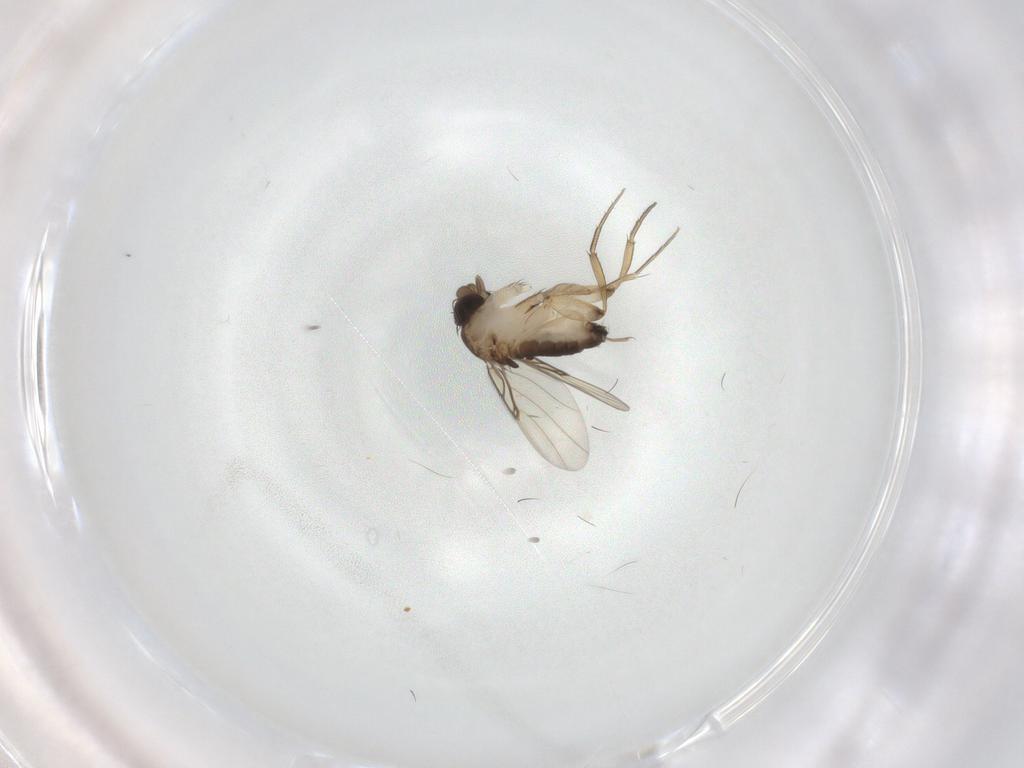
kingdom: Animalia
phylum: Arthropoda
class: Insecta
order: Diptera
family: Phoridae
